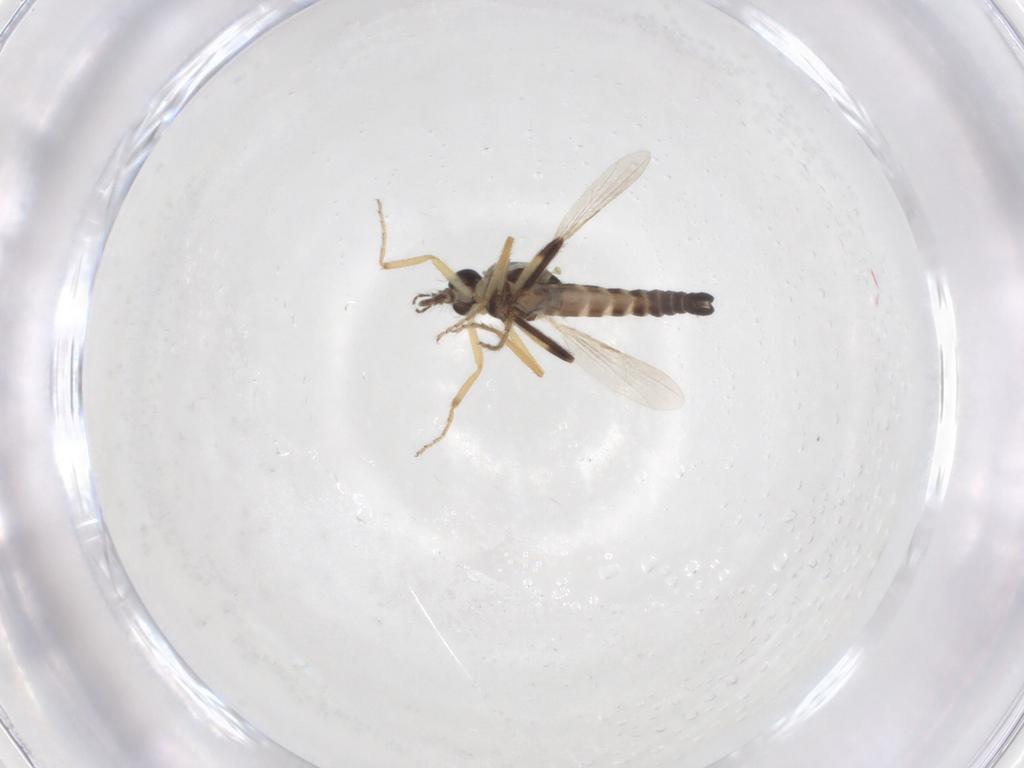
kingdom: Animalia
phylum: Arthropoda
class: Insecta
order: Diptera
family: Ceratopogonidae
